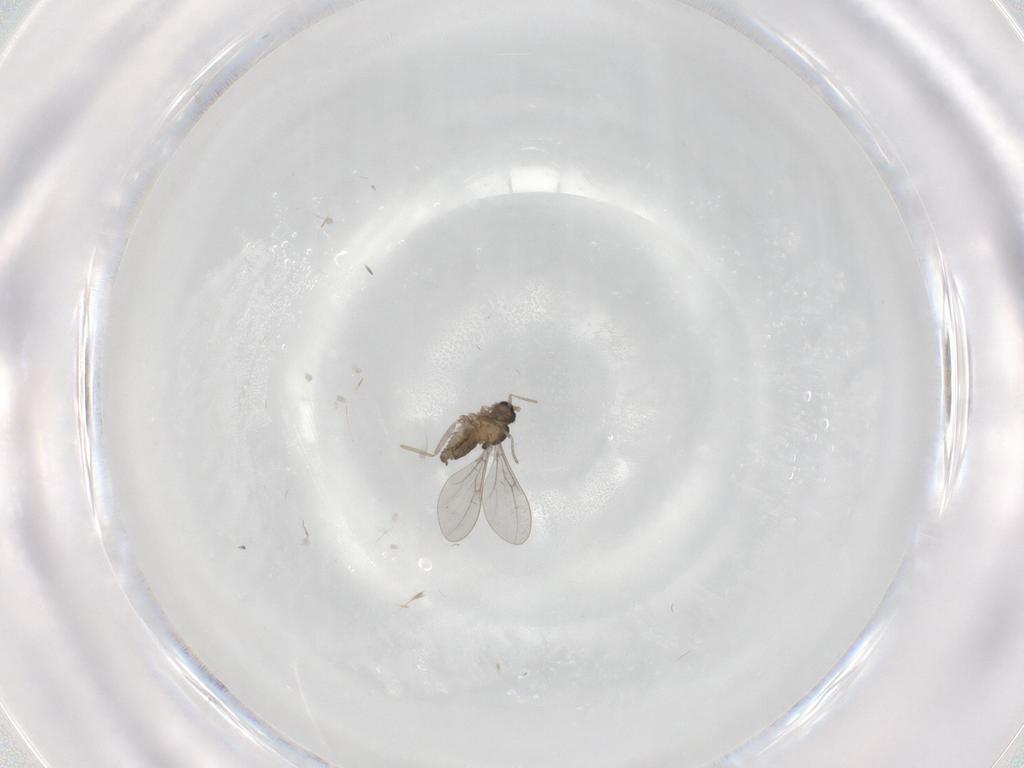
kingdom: Animalia
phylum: Arthropoda
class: Insecta
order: Diptera
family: Cecidomyiidae
